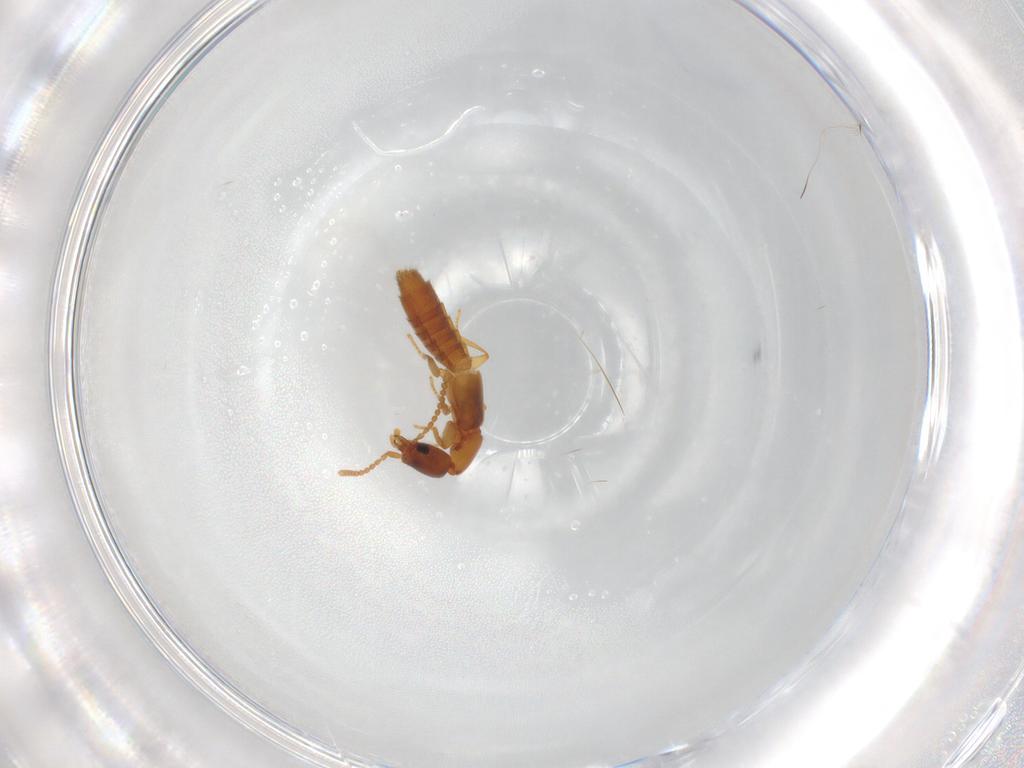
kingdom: Animalia
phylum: Arthropoda
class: Insecta
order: Coleoptera
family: Staphylinidae
